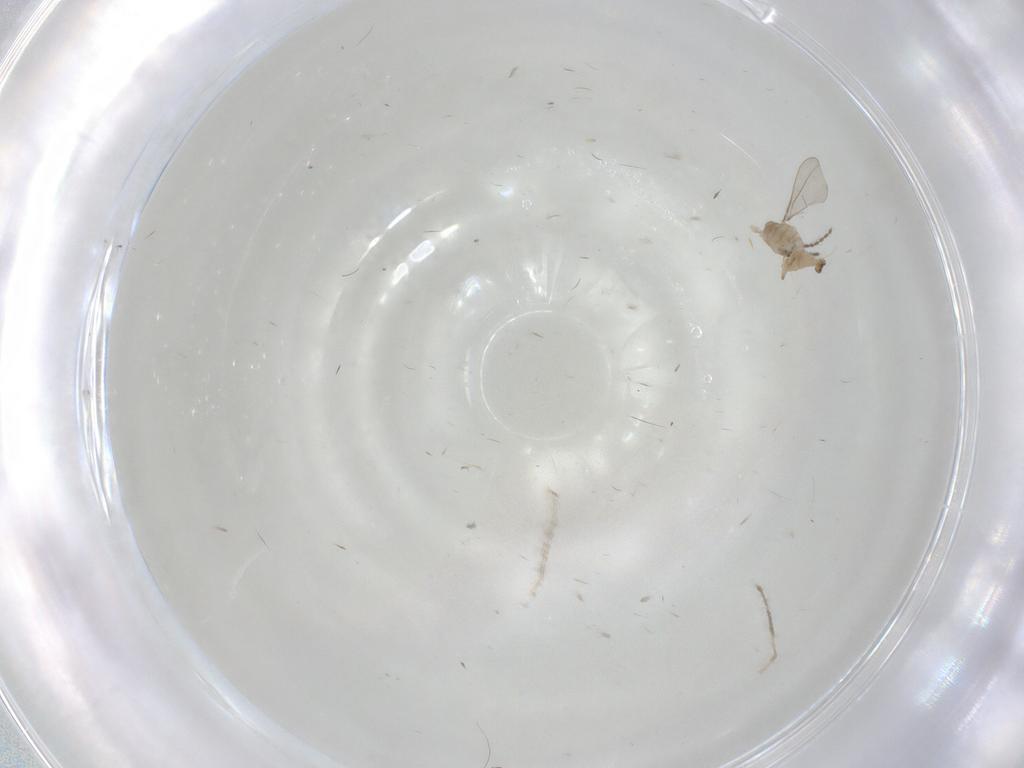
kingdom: Animalia
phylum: Arthropoda
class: Insecta
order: Diptera
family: Cecidomyiidae
